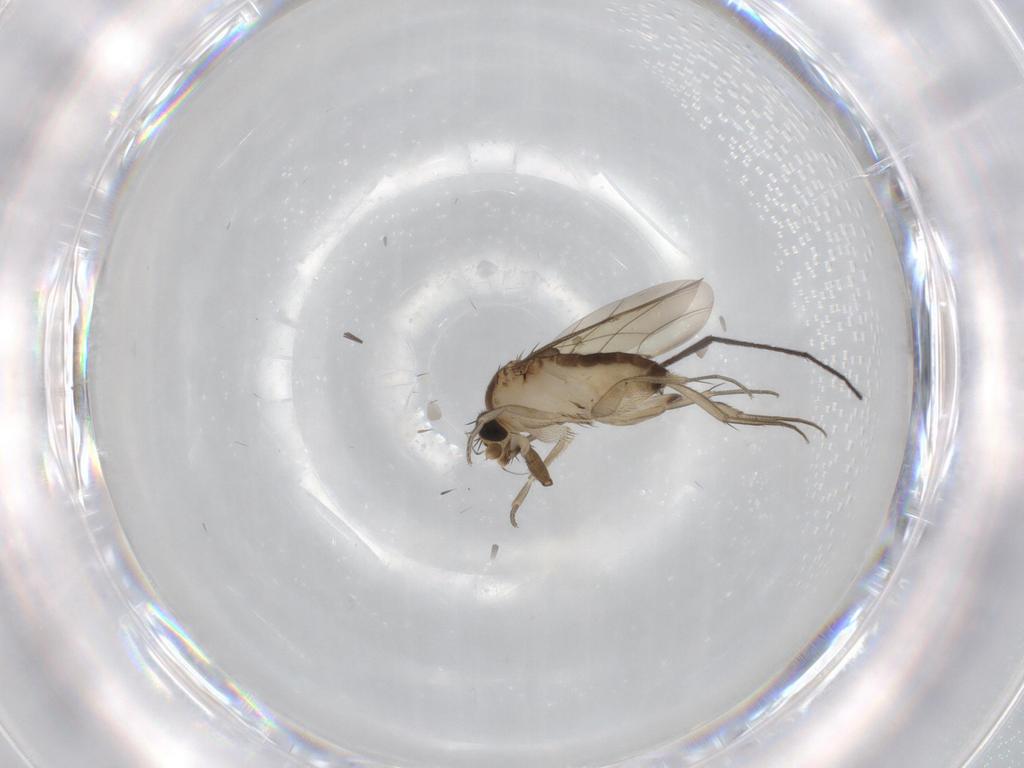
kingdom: Animalia
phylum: Arthropoda
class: Insecta
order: Diptera
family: Phoridae
